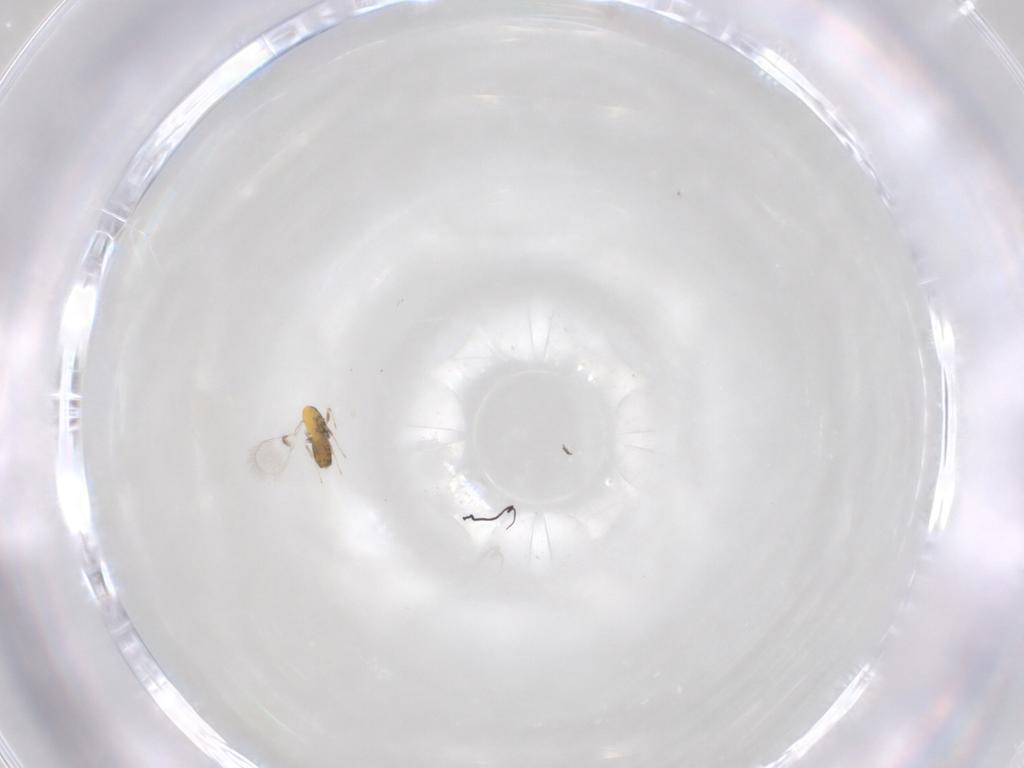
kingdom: Animalia
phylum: Arthropoda
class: Insecta
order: Hymenoptera
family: Trichogrammatidae
